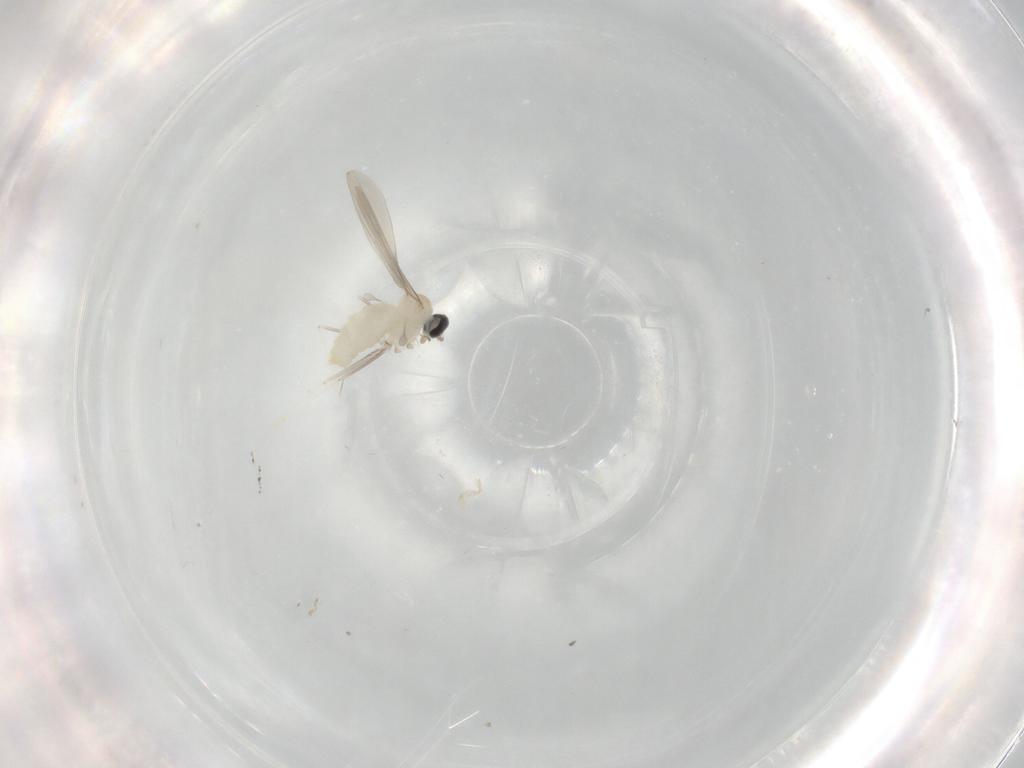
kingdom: Animalia
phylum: Arthropoda
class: Insecta
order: Diptera
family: Cecidomyiidae
